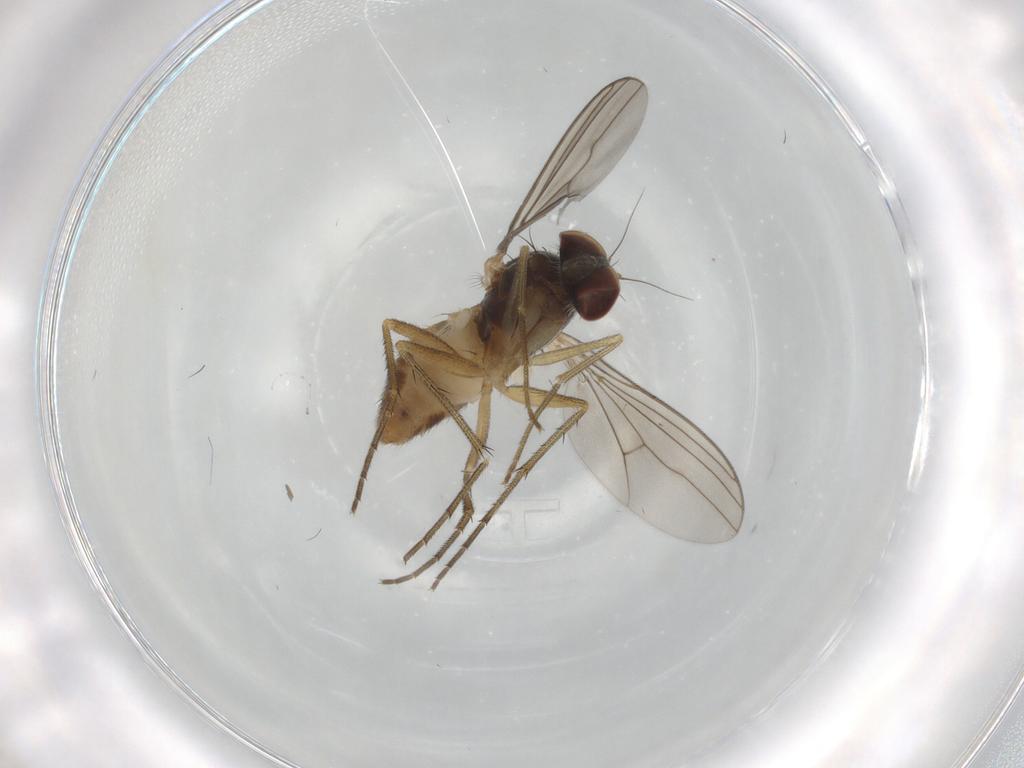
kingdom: Animalia
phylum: Arthropoda
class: Insecta
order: Diptera
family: Dolichopodidae
